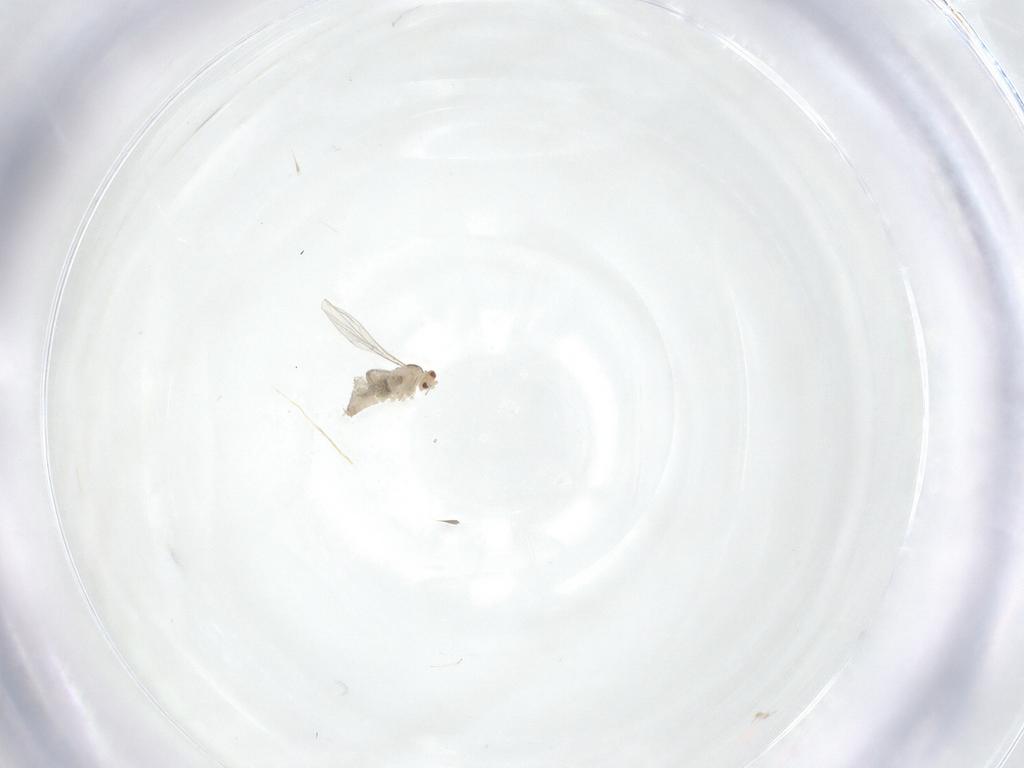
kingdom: Animalia
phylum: Arthropoda
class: Insecta
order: Diptera
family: Phoridae
